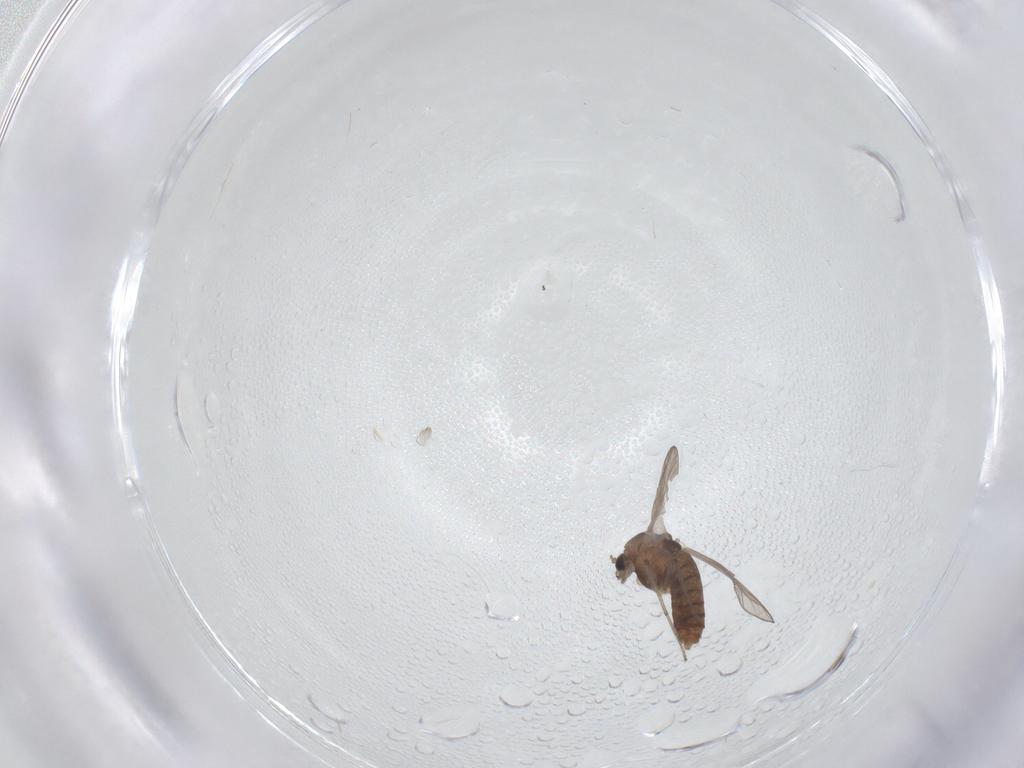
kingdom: Animalia
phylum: Arthropoda
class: Insecta
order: Diptera
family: Chironomidae
